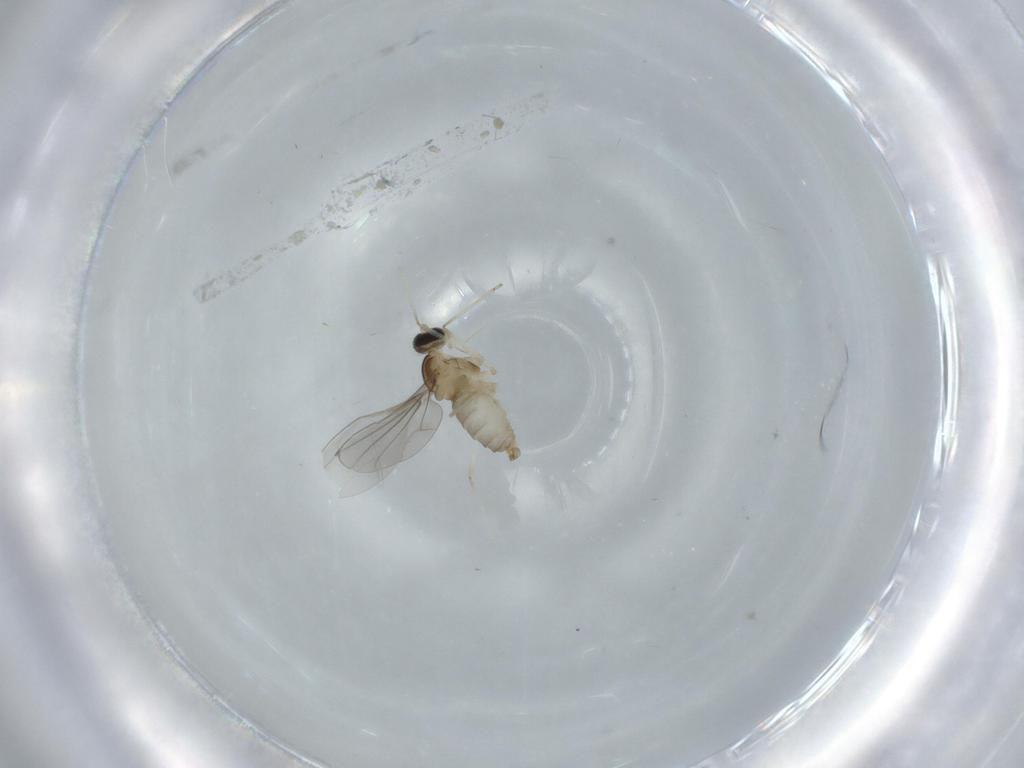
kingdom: Animalia
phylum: Arthropoda
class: Insecta
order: Diptera
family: Cecidomyiidae
